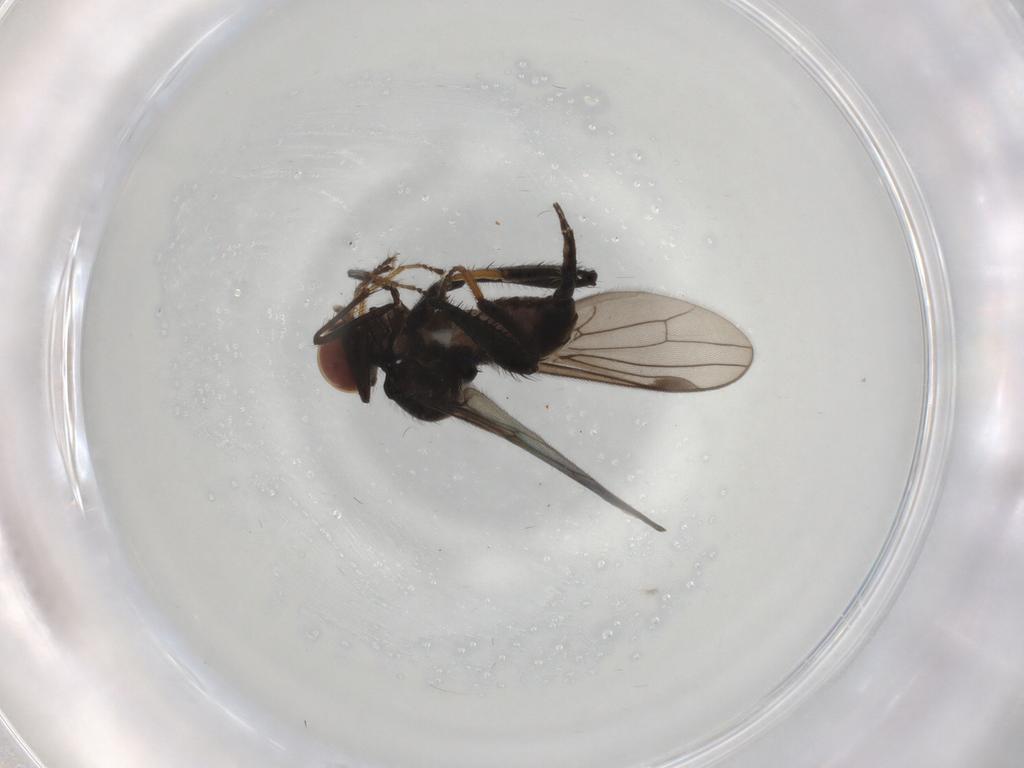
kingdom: Animalia
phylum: Arthropoda
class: Insecta
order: Diptera
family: Hybotidae
